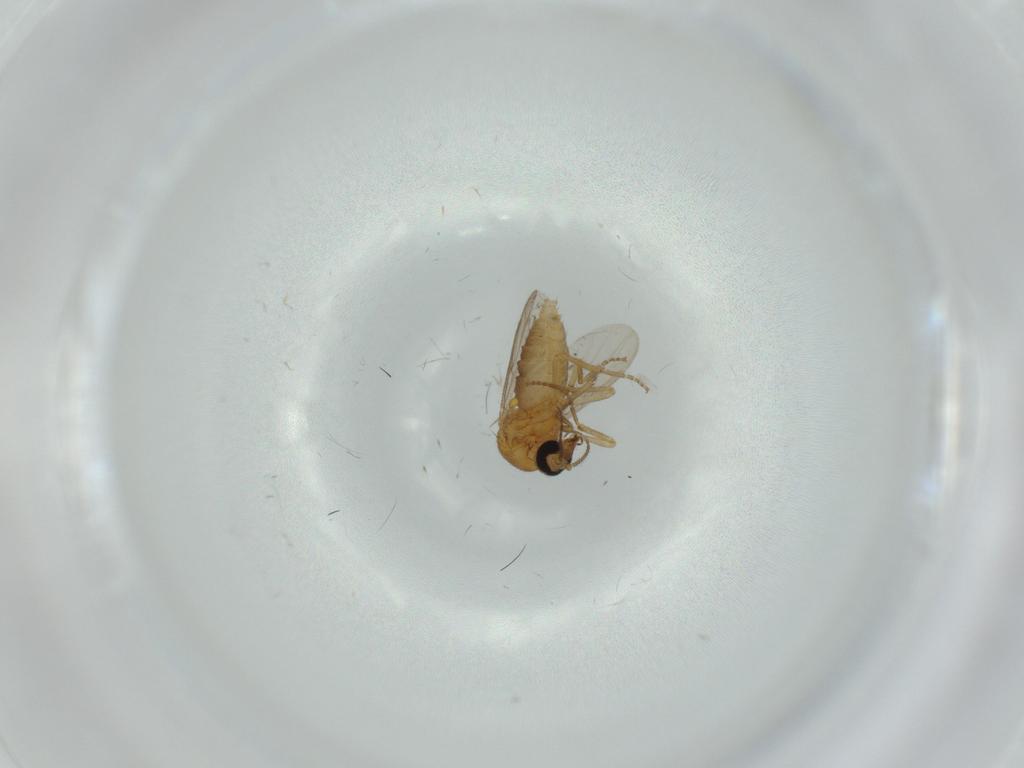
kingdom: Animalia
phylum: Arthropoda
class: Insecta
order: Diptera
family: Ceratopogonidae
